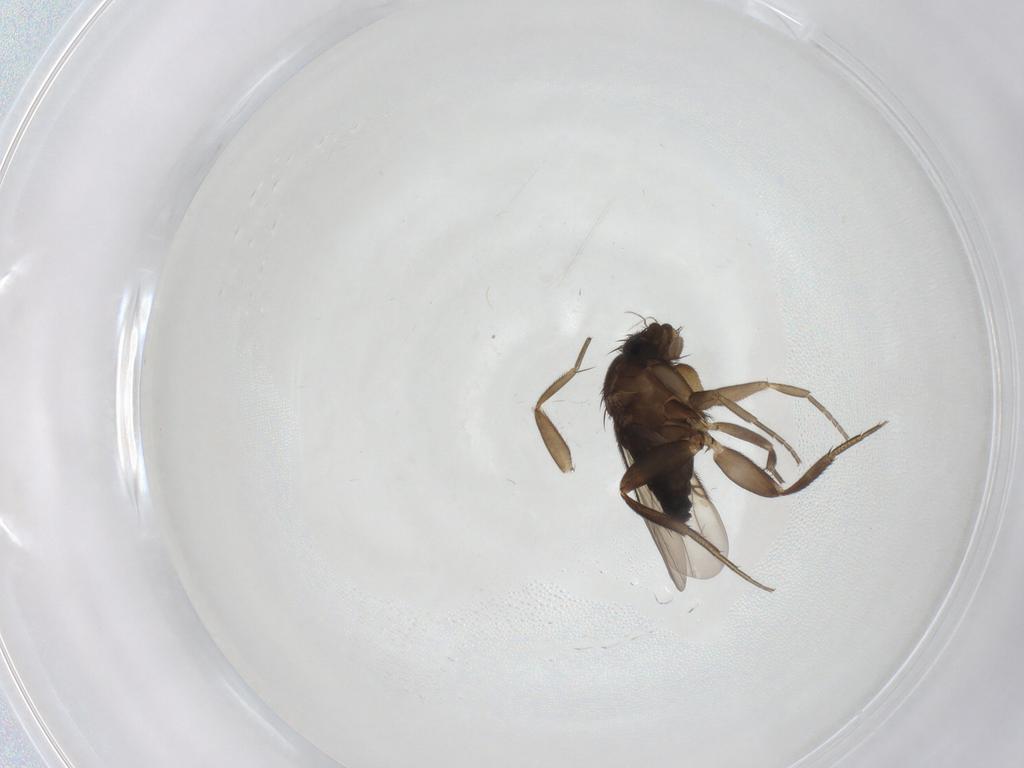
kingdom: Animalia
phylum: Arthropoda
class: Insecta
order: Diptera
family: Phoridae
